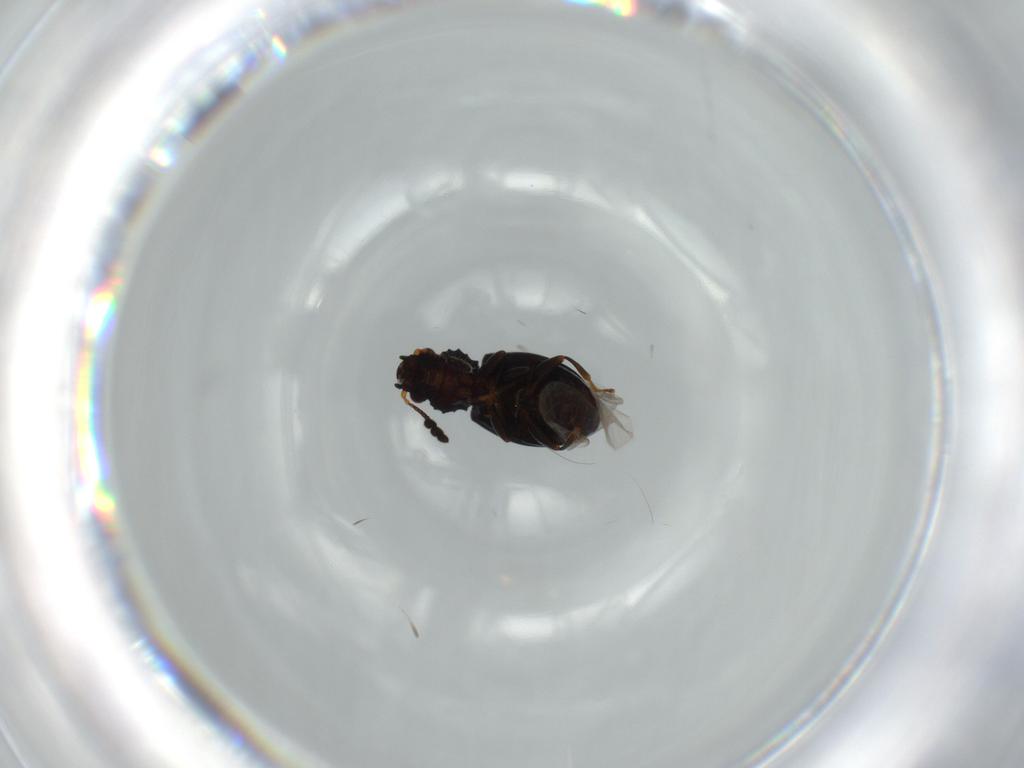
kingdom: Animalia
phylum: Arthropoda
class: Insecta
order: Coleoptera
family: Salpingidae
